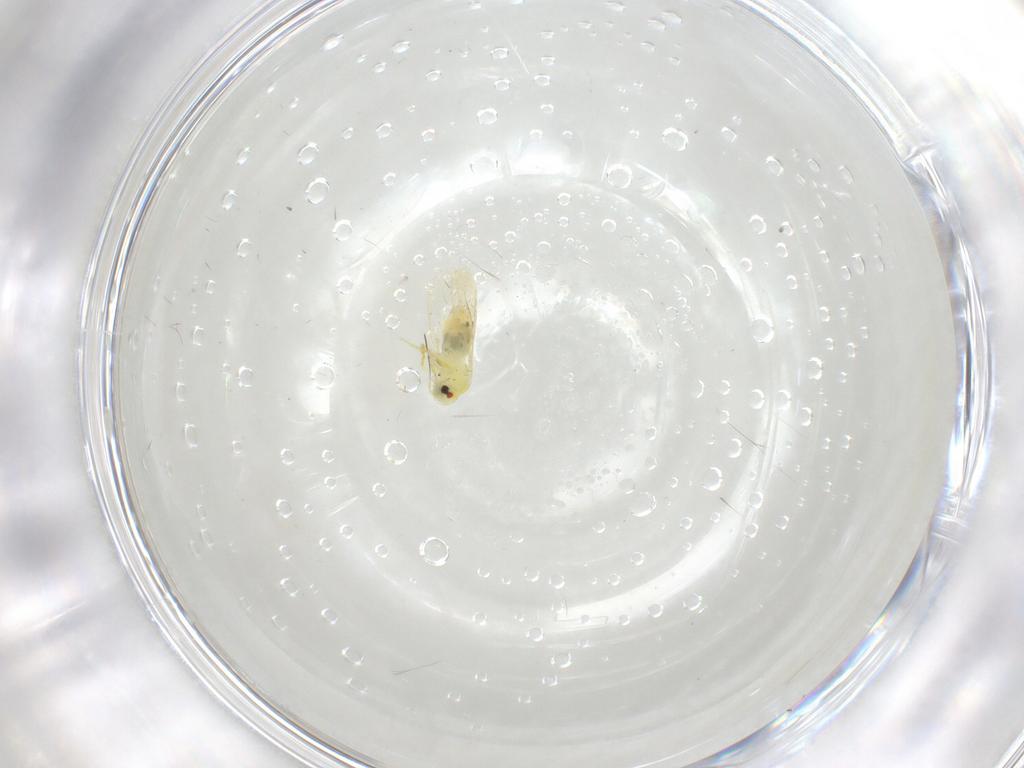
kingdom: Animalia
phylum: Arthropoda
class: Insecta
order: Hemiptera
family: Aleyrodidae
